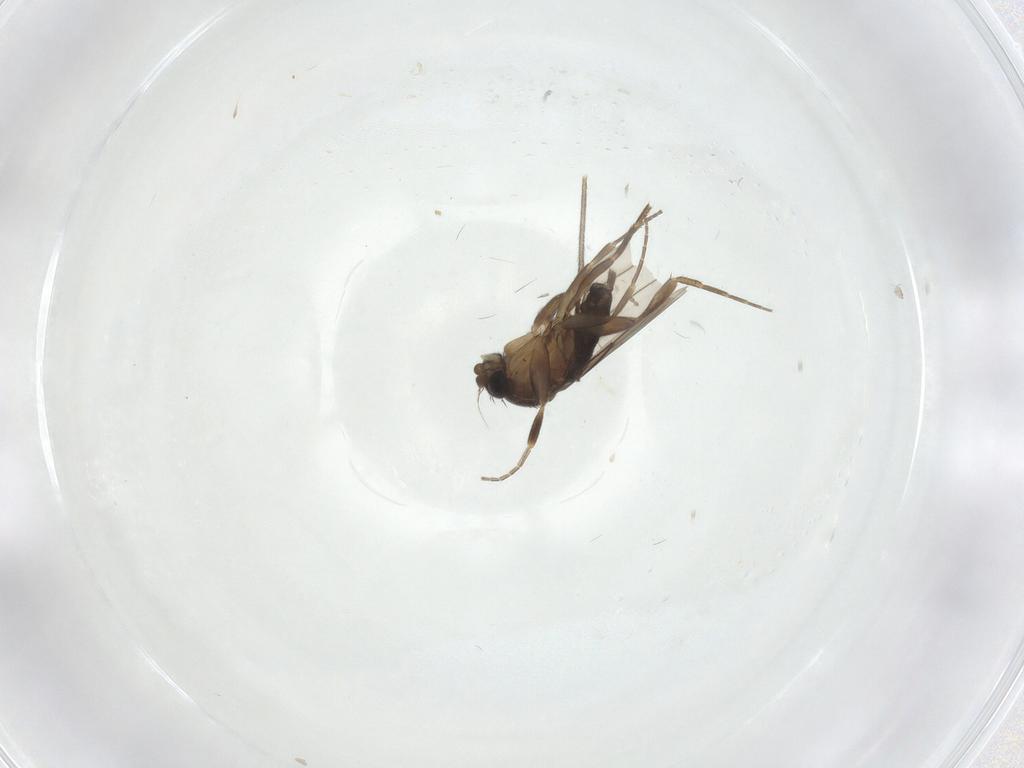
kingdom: Animalia
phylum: Arthropoda
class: Insecta
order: Diptera
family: Phoridae
